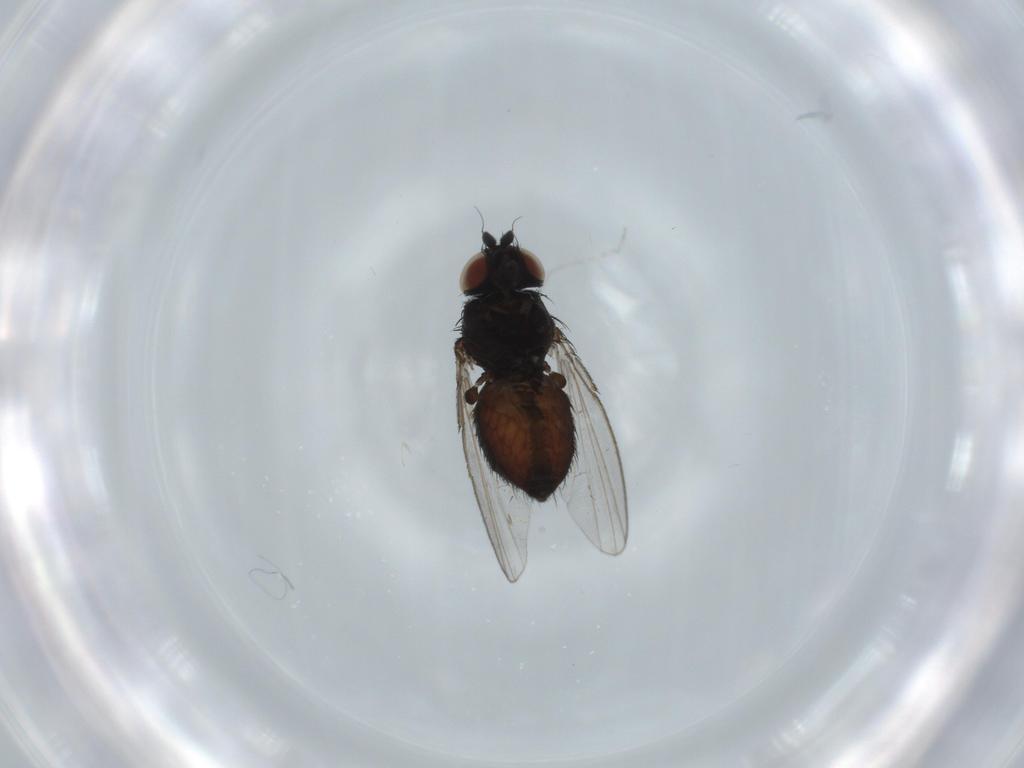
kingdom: Animalia
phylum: Arthropoda
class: Insecta
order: Diptera
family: Milichiidae
